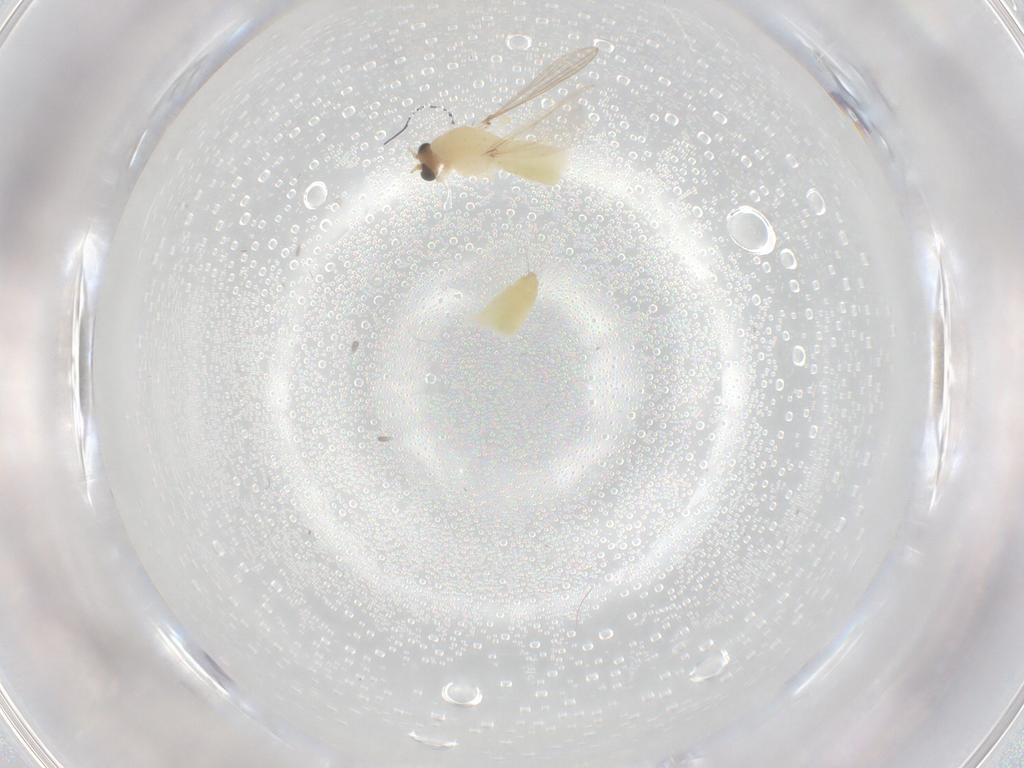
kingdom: Animalia
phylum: Arthropoda
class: Insecta
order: Diptera
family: Chironomidae
